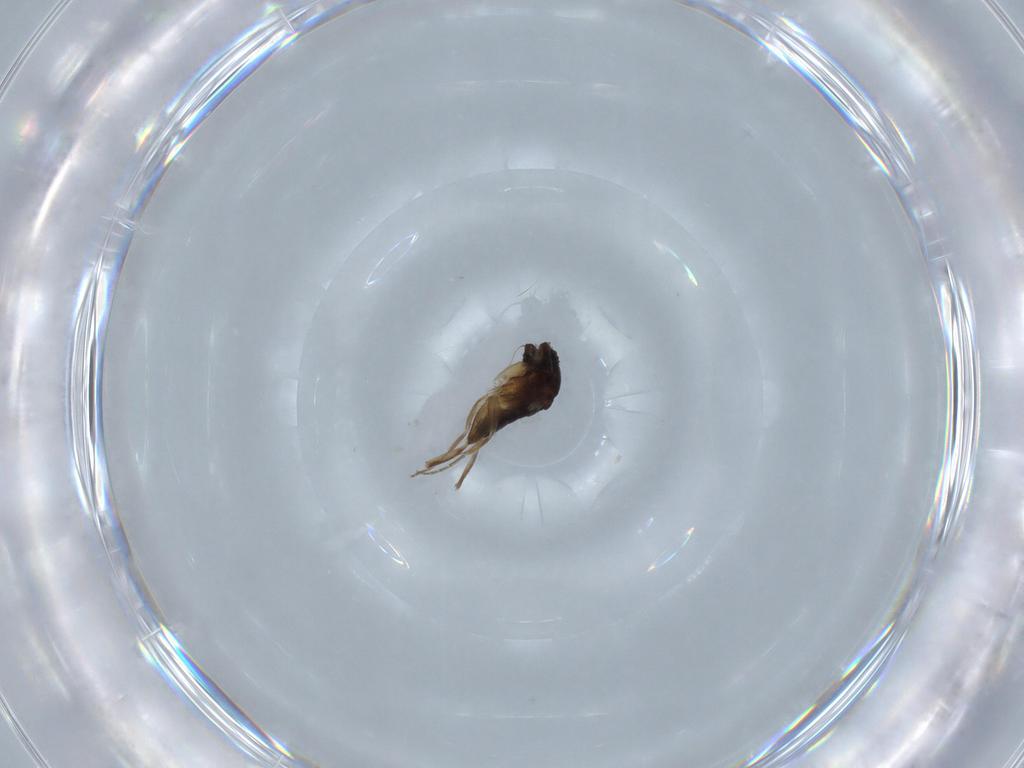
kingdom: Animalia
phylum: Arthropoda
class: Insecta
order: Diptera
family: Phoridae
